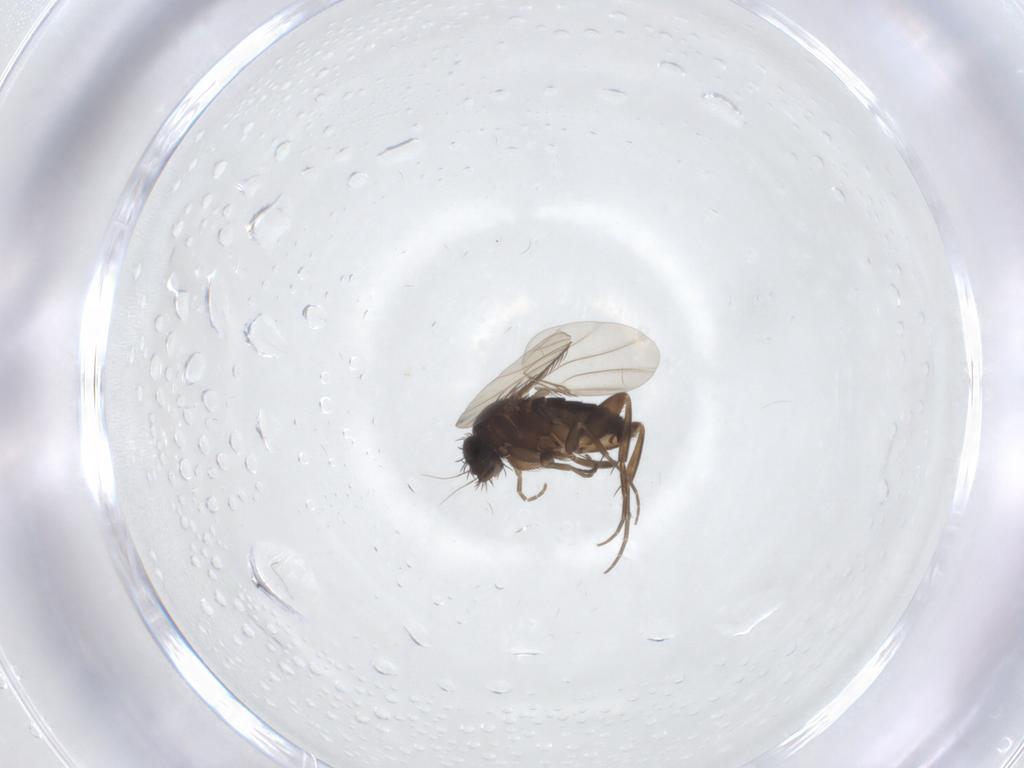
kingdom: Animalia
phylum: Arthropoda
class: Insecta
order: Diptera
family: Phoridae
